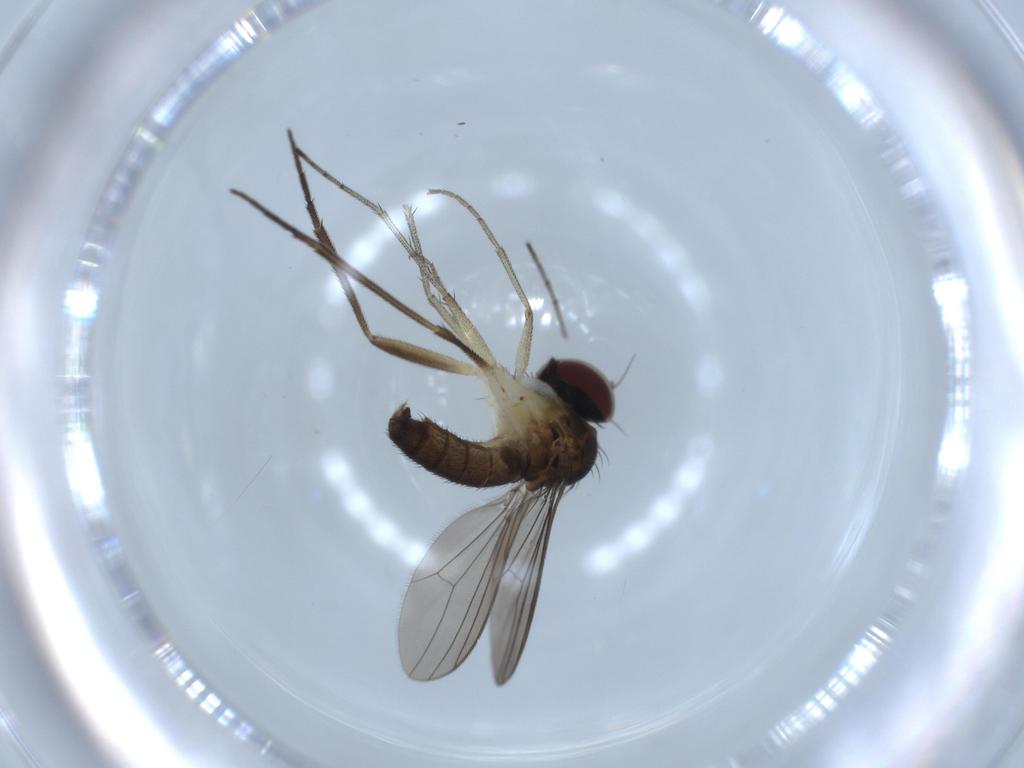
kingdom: Animalia
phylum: Arthropoda
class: Insecta
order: Diptera
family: Dolichopodidae
